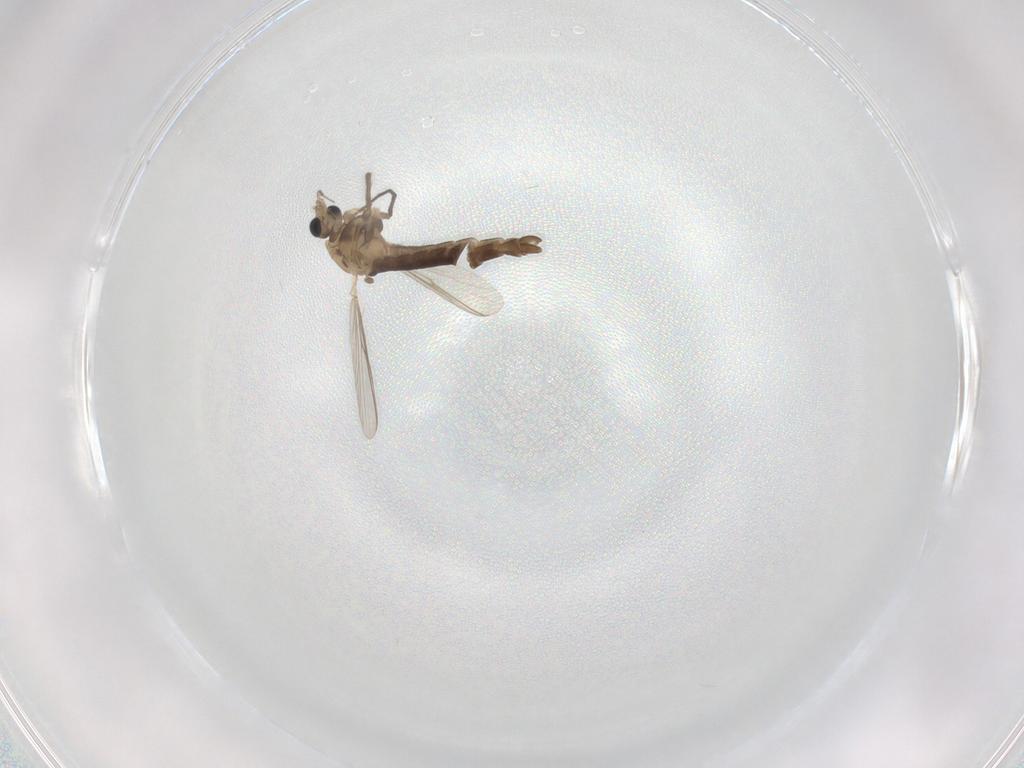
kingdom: Animalia
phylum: Arthropoda
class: Insecta
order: Diptera
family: Chironomidae
